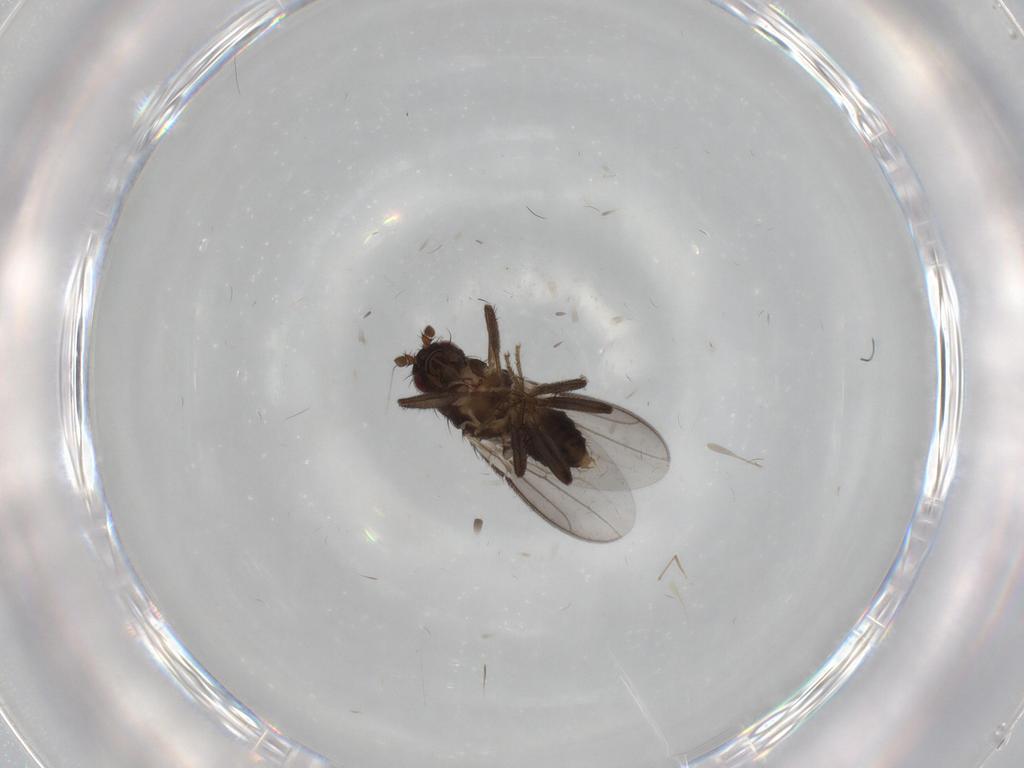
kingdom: Animalia
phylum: Arthropoda
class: Insecta
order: Diptera
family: Sphaeroceridae
